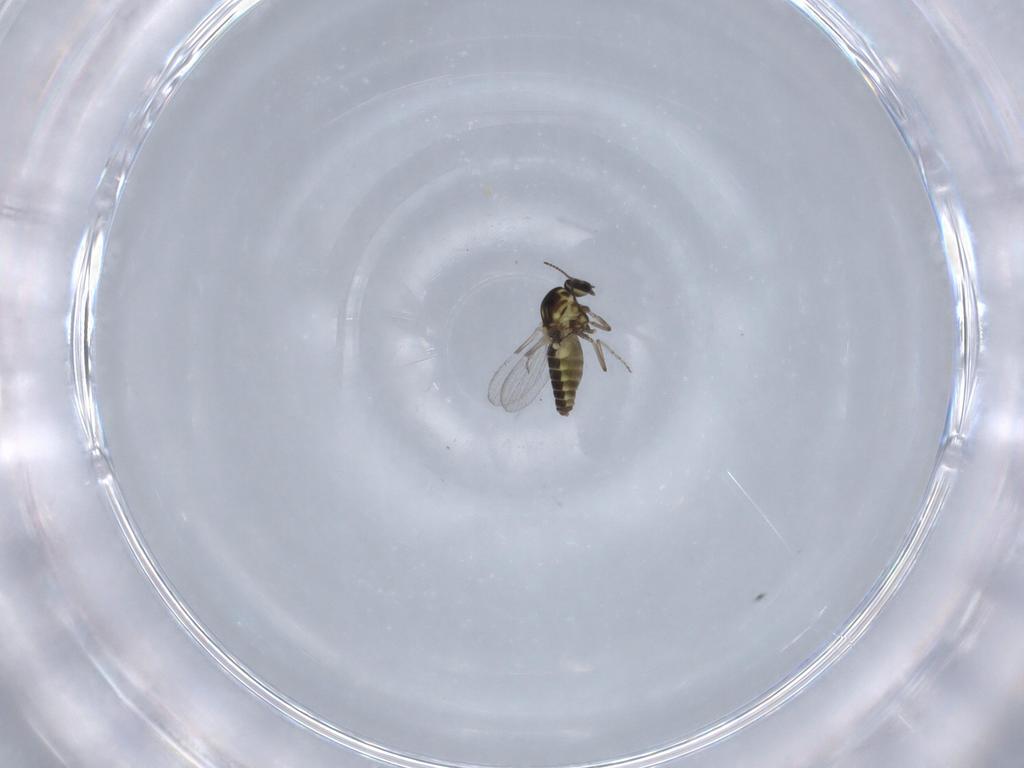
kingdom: Animalia
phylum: Arthropoda
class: Insecta
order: Diptera
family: Ceratopogonidae
